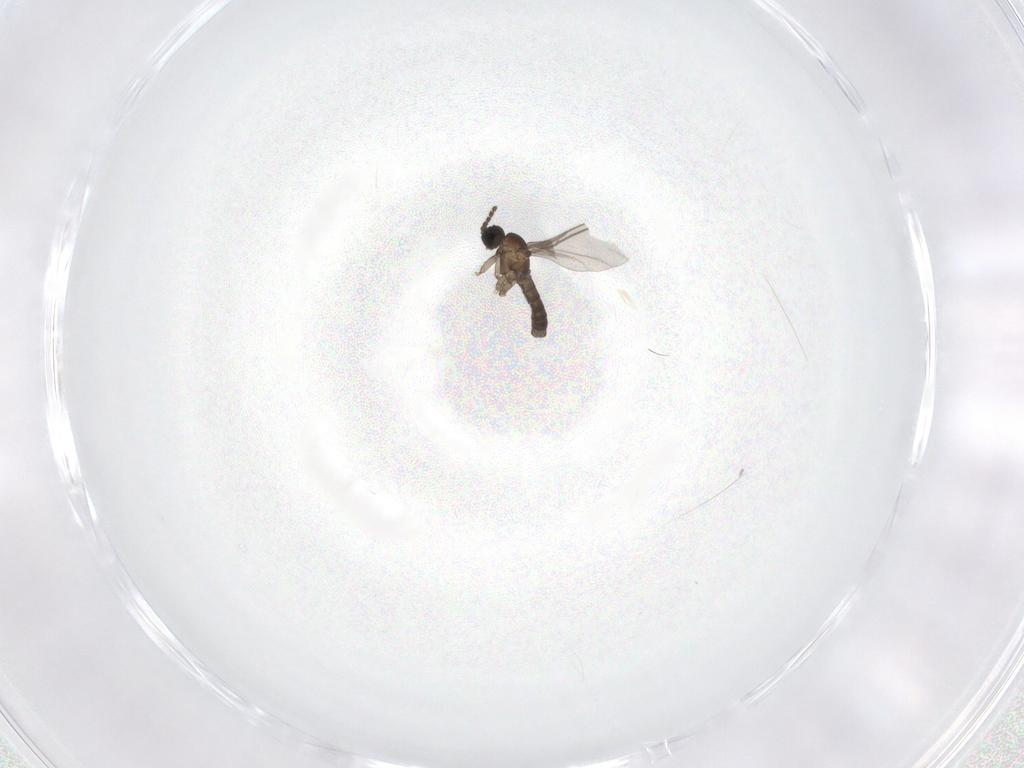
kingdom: Animalia
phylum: Arthropoda
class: Insecta
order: Diptera
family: Sciaridae
